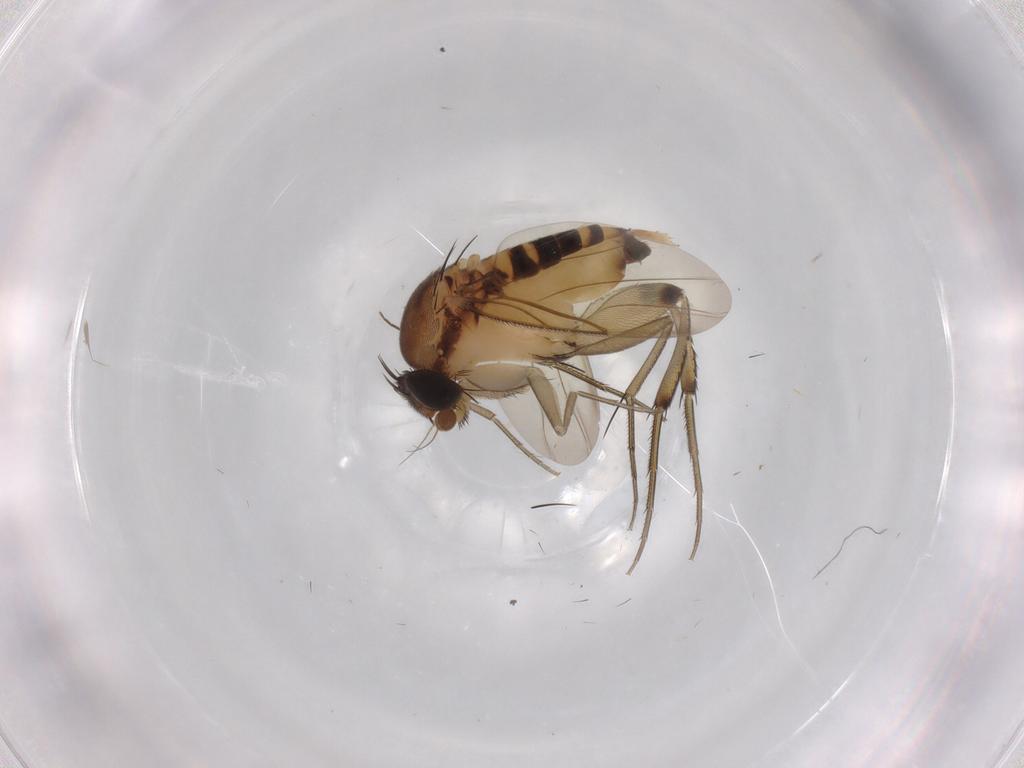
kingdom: Animalia
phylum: Arthropoda
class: Insecta
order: Diptera
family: Phoridae
